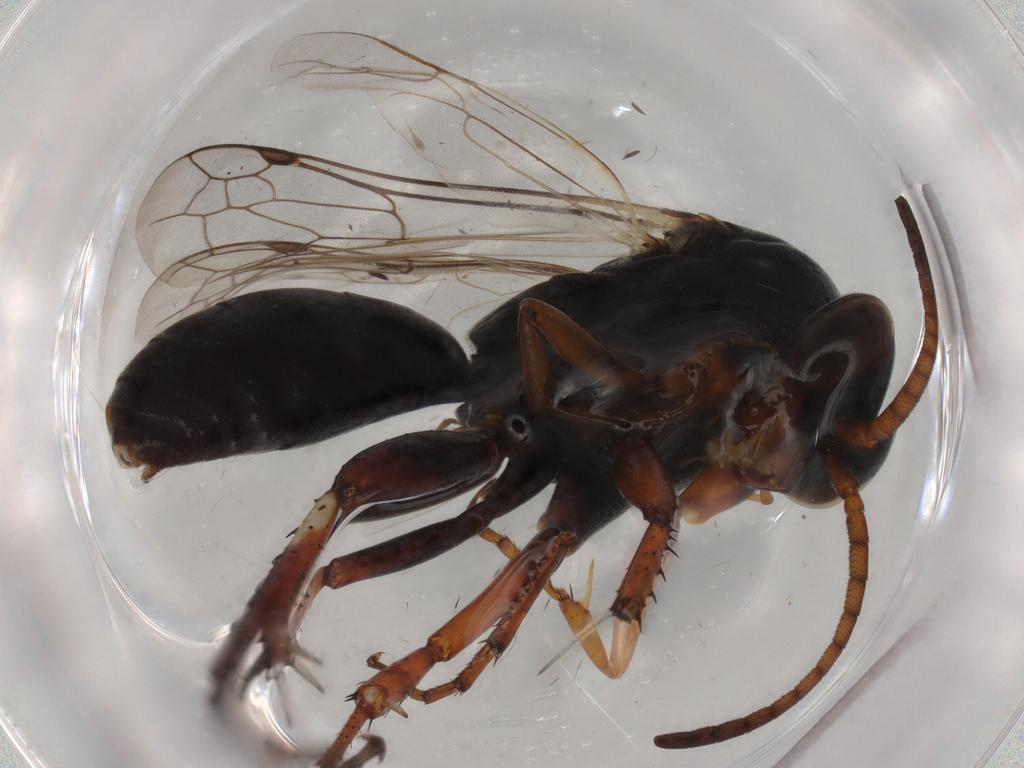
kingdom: Animalia
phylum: Arthropoda
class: Insecta
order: Hymenoptera
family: Pompilidae
